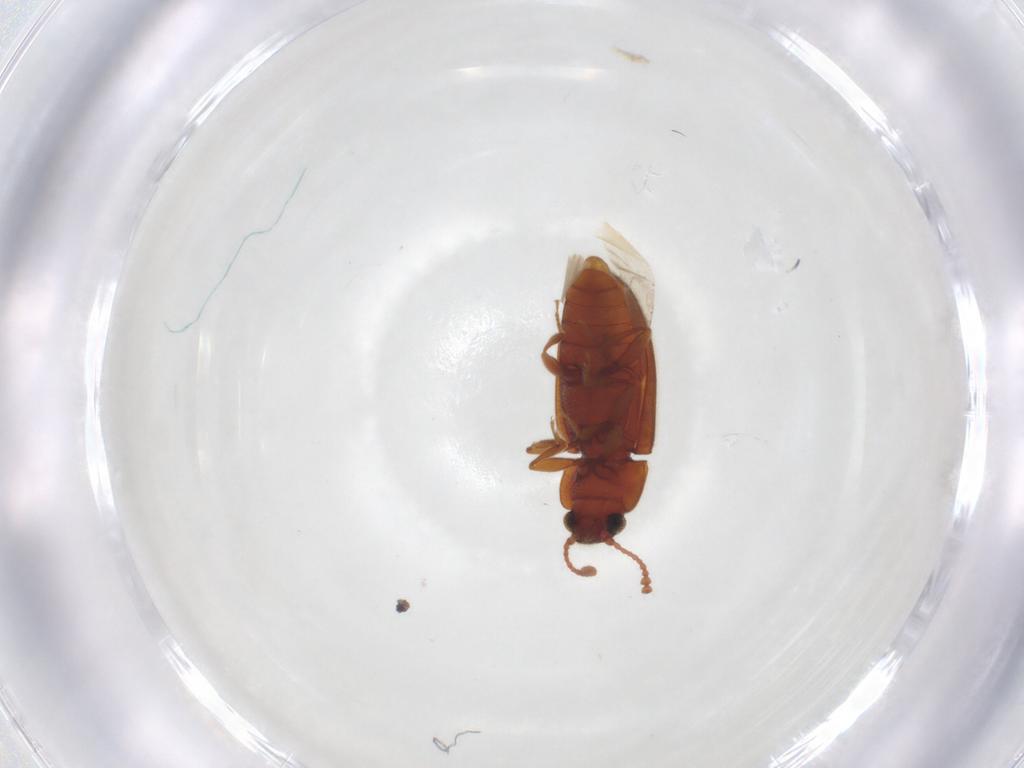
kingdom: Animalia
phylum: Arthropoda
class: Insecta
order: Coleoptera
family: Erotylidae
